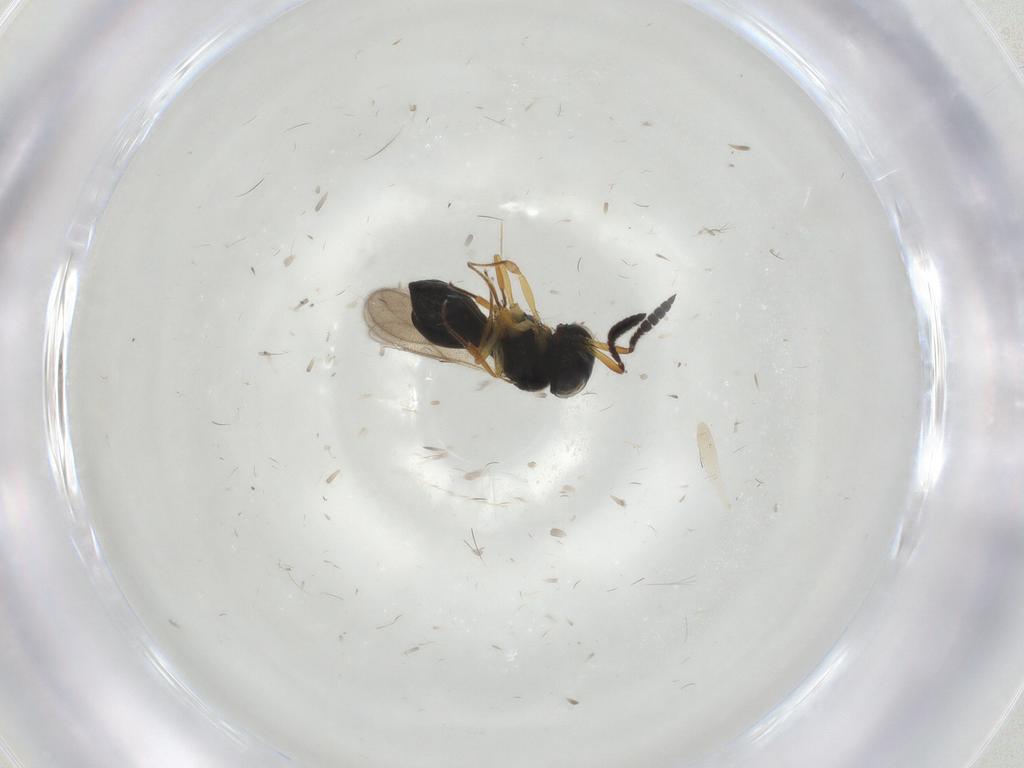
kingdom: Animalia
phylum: Arthropoda
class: Insecta
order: Hymenoptera
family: Scelionidae
